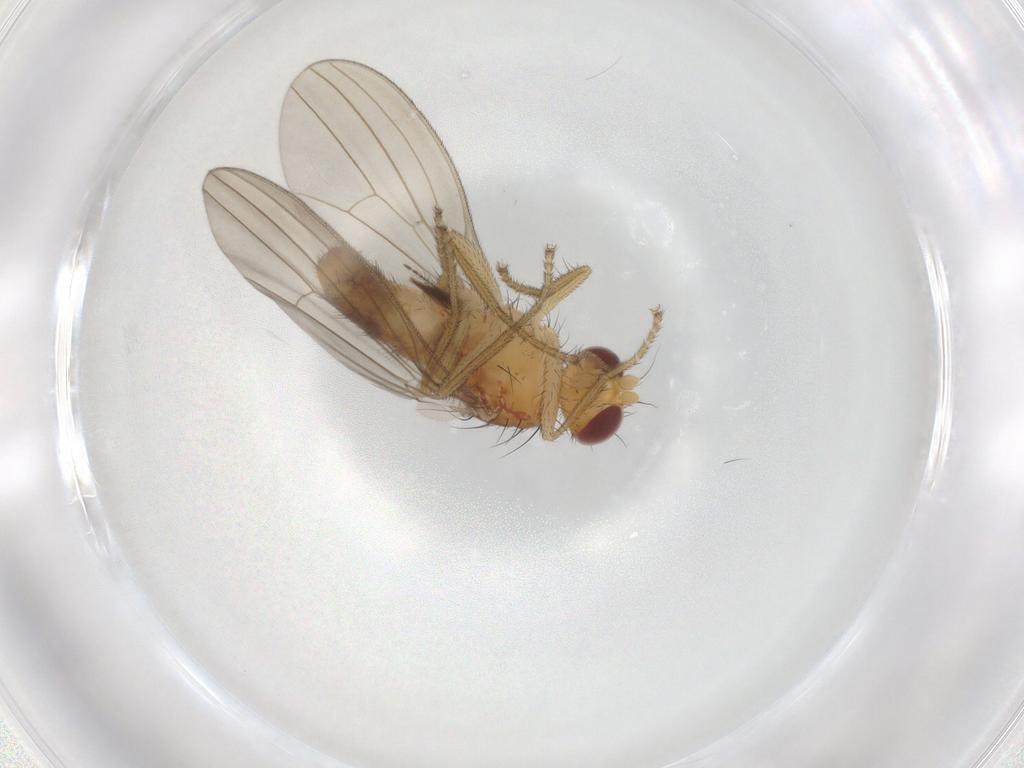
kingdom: Animalia
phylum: Arthropoda
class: Insecta
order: Diptera
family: Natalimyzidae
